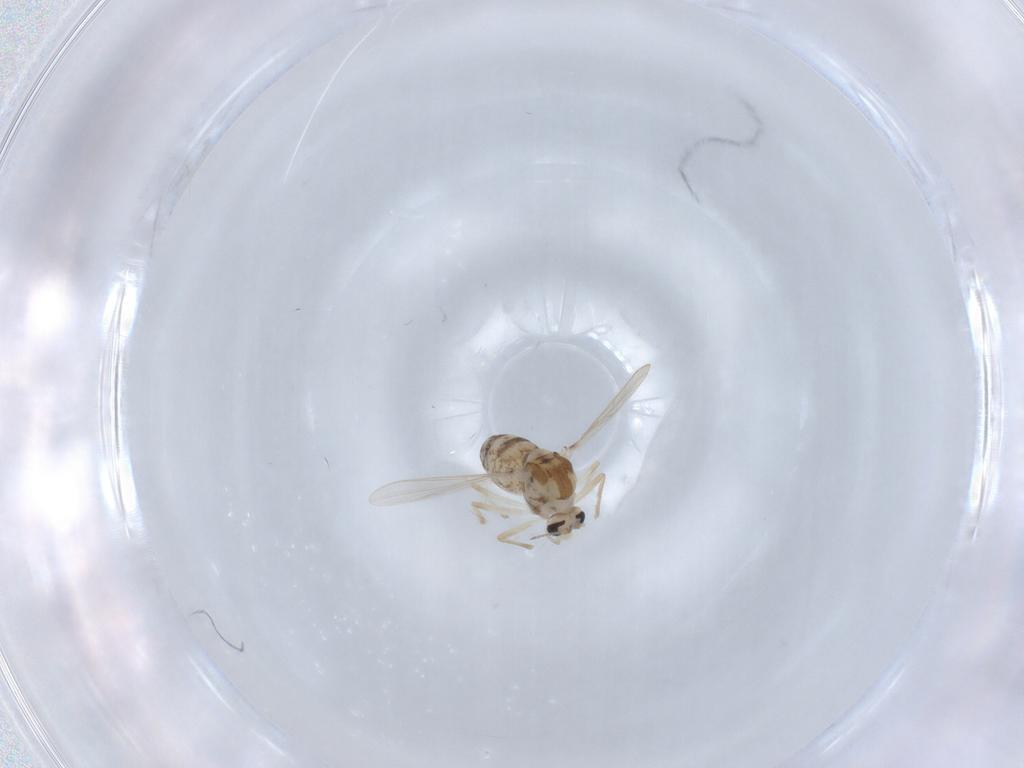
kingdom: Animalia
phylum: Arthropoda
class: Insecta
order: Diptera
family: Chironomidae
